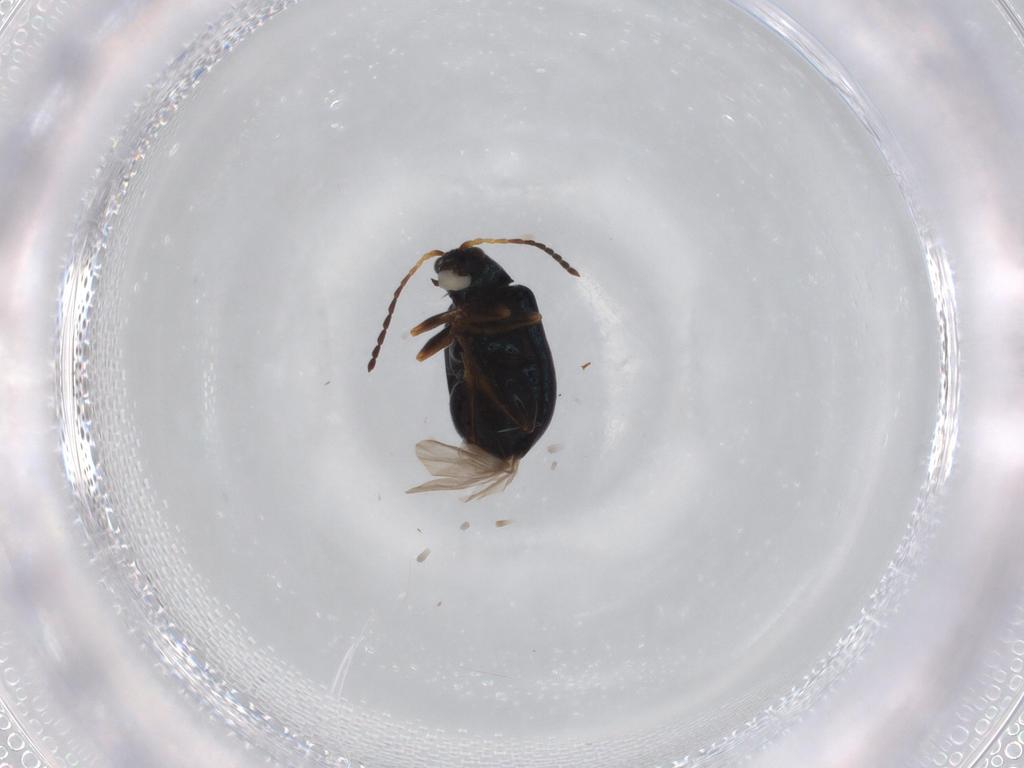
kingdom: Animalia
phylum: Arthropoda
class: Insecta
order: Coleoptera
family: Chrysomelidae
